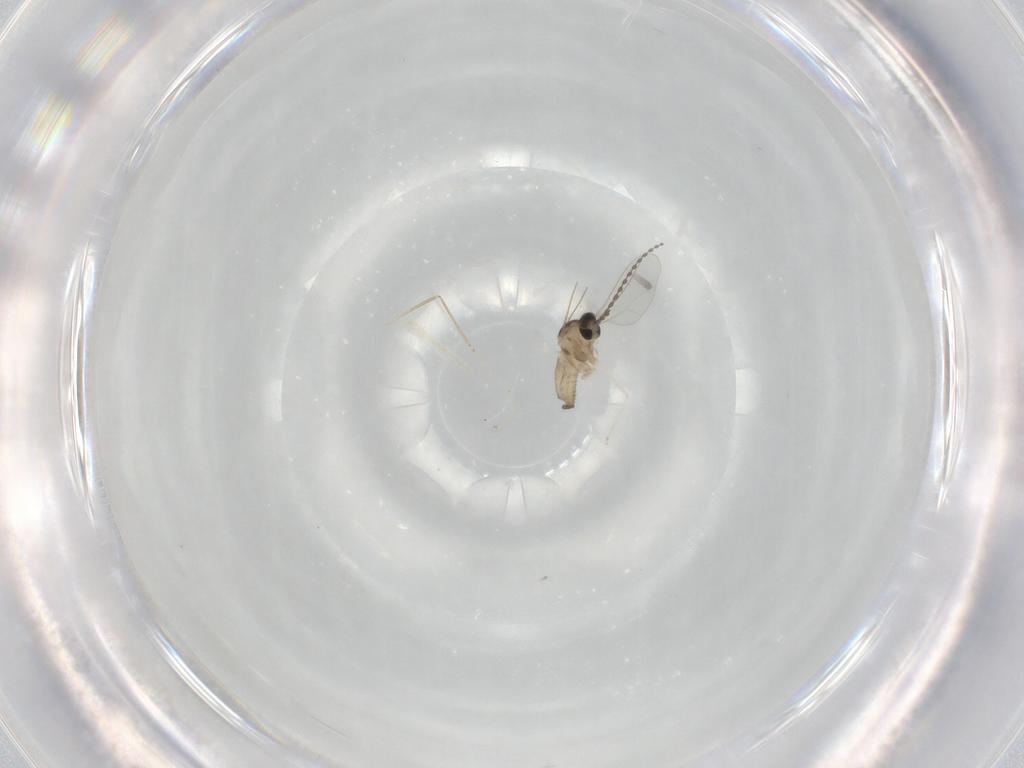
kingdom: Animalia
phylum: Arthropoda
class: Insecta
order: Diptera
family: Cecidomyiidae
